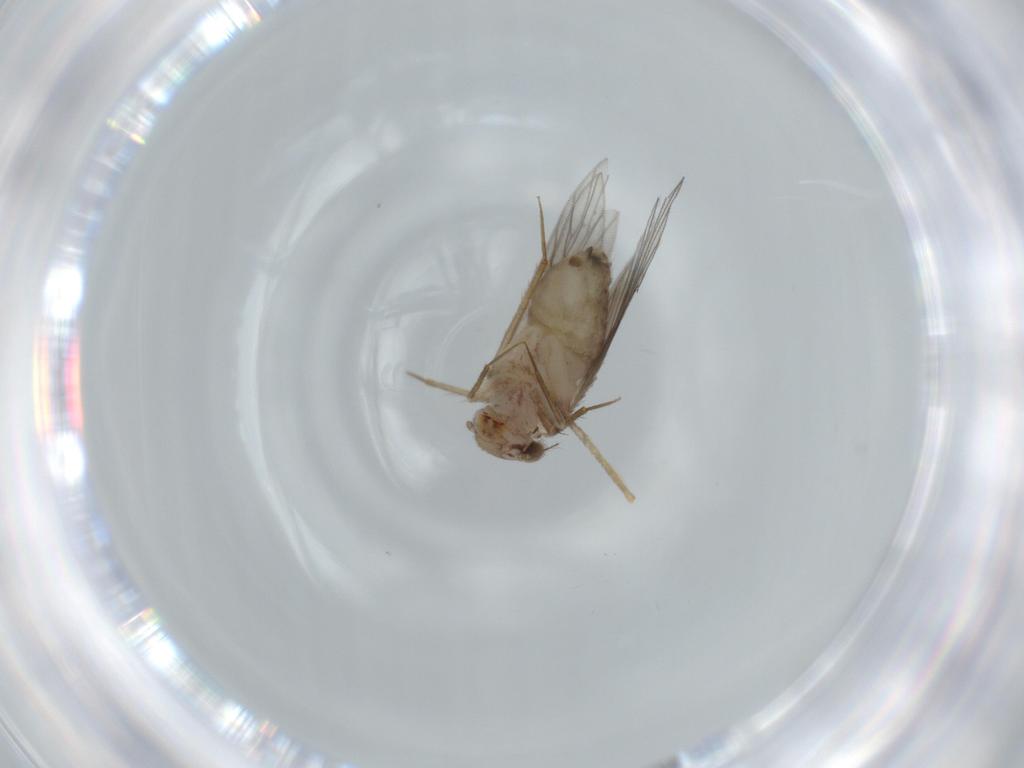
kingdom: Animalia
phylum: Arthropoda
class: Insecta
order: Psocodea
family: Lepidopsocidae
